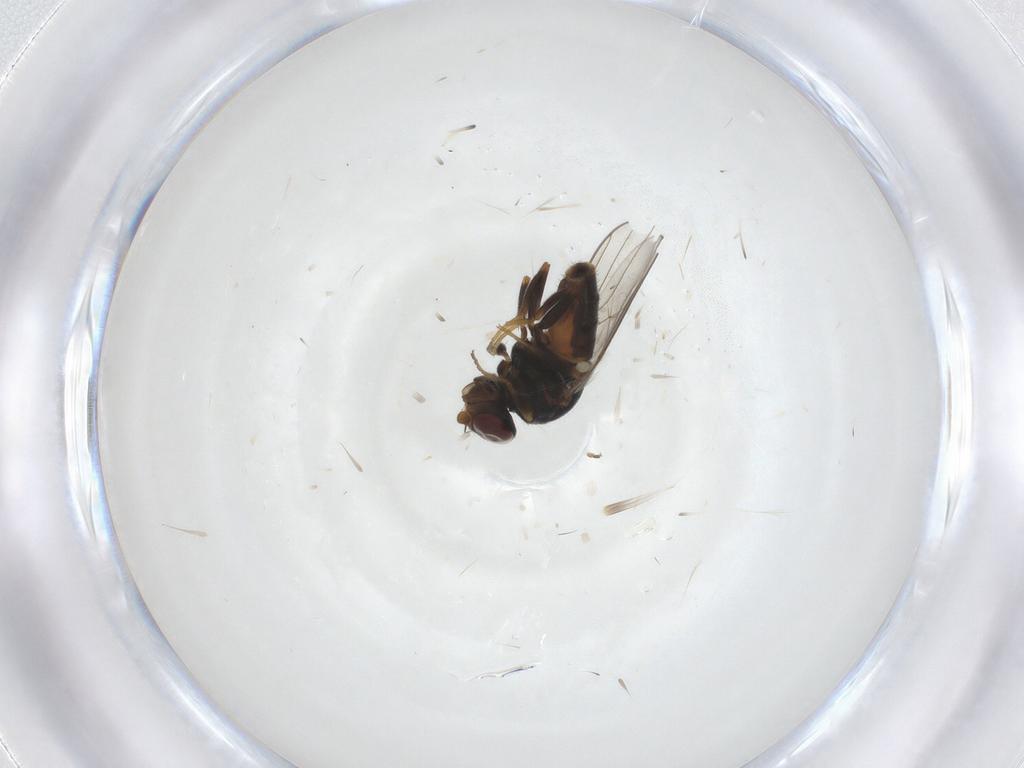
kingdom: Animalia
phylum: Arthropoda
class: Insecta
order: Diptera
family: Chloropidae
